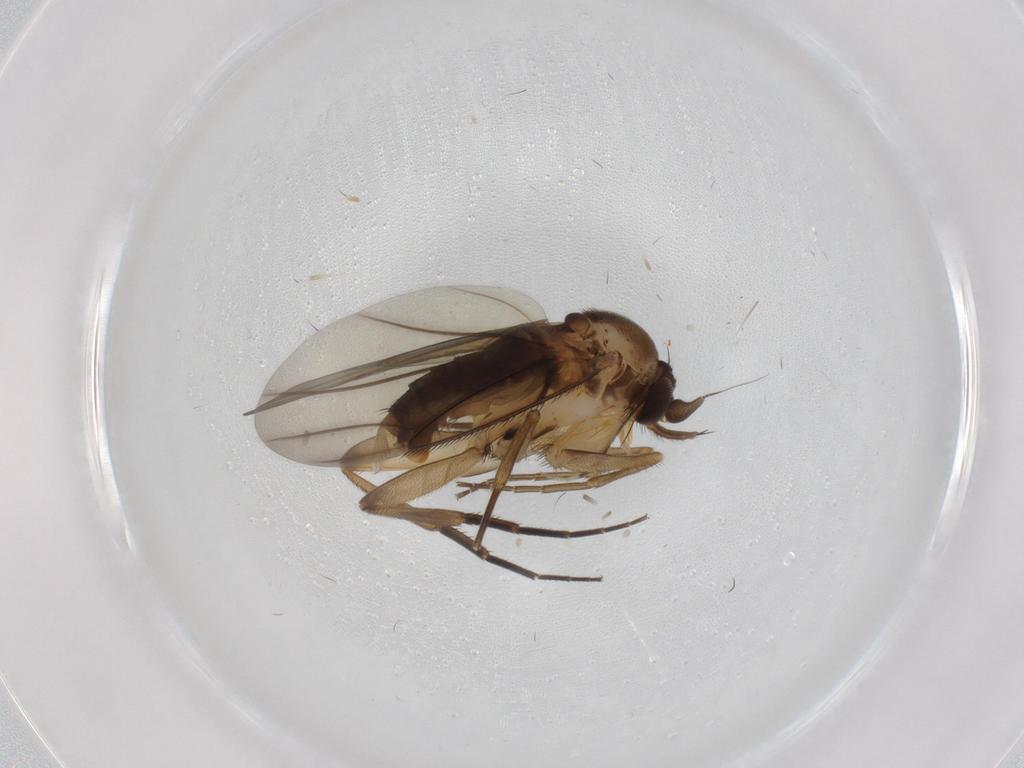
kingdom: Animalia
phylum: Arthropoda
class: Insecta
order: Diptera
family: Phoridae
